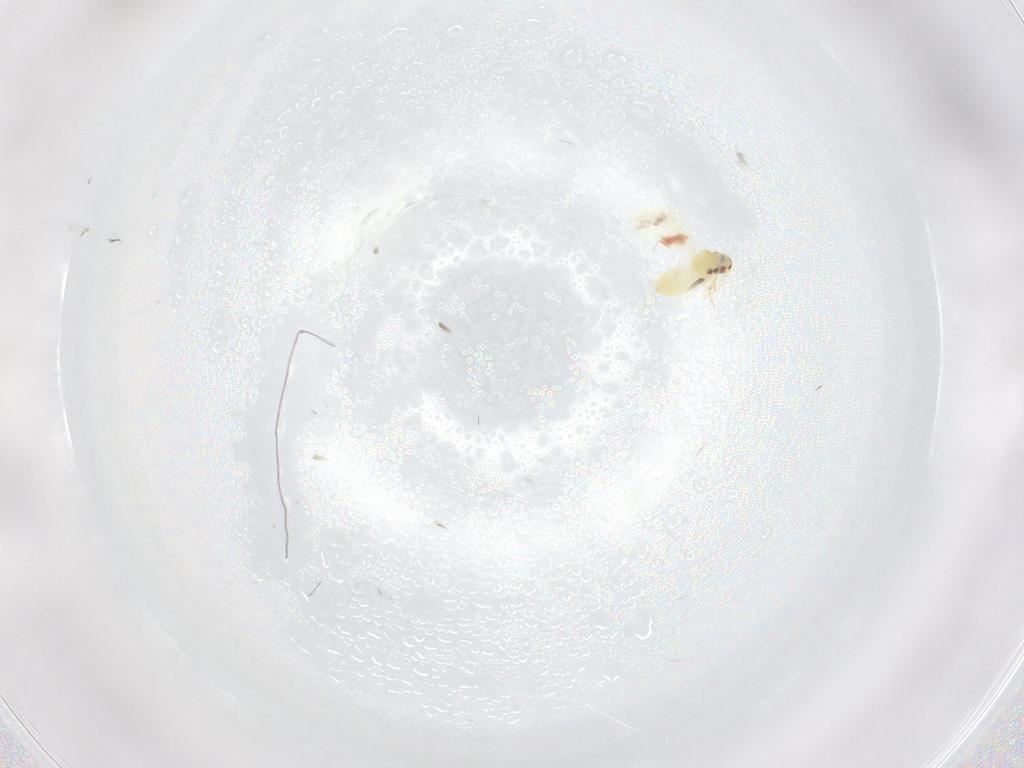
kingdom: Animalia
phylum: Arthropoda
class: Insecta
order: Hemiptera
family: Aleyrodidae
